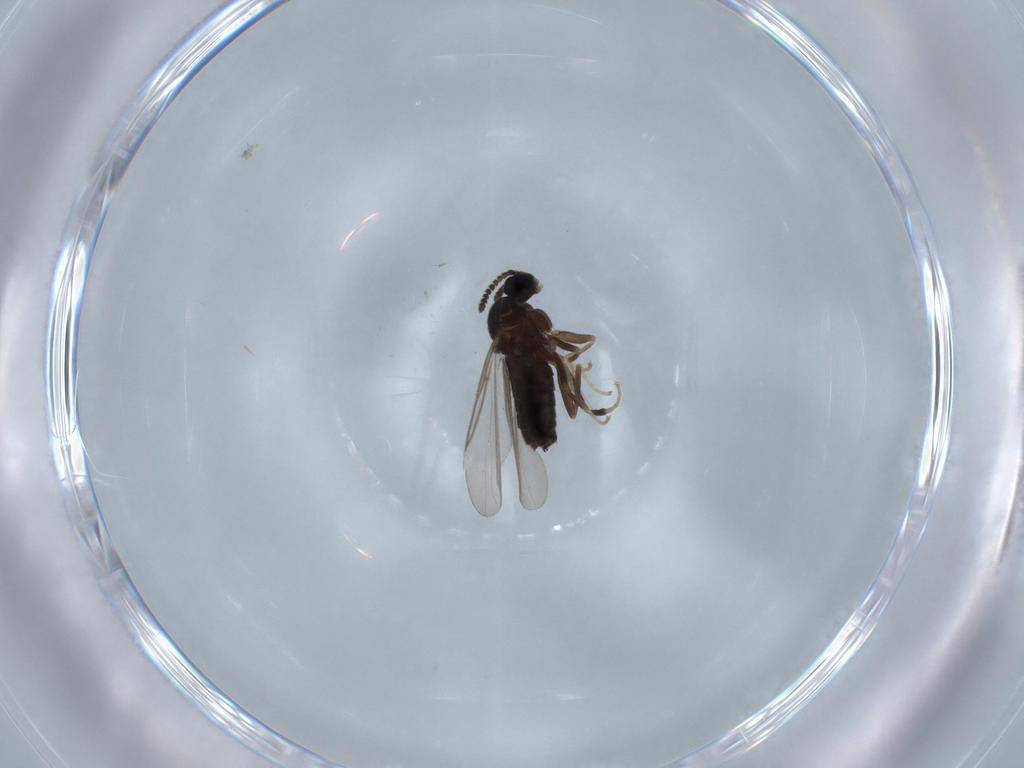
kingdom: Animalia
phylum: Arthropoda
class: Insecta
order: Diptera
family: Hybotidae
